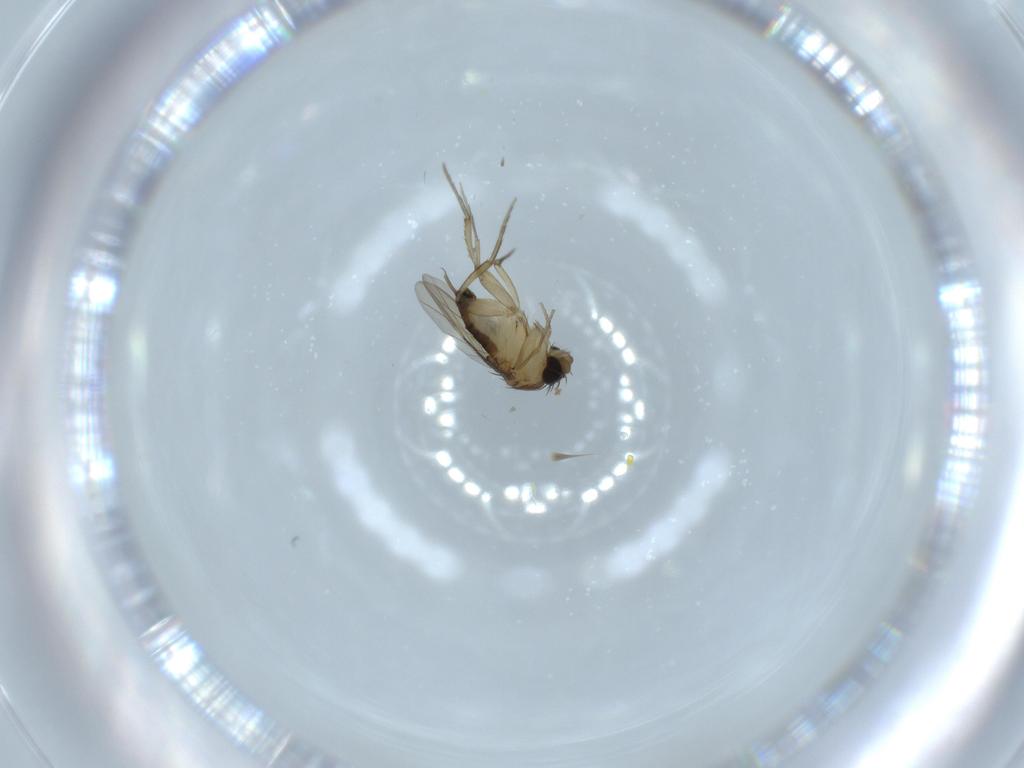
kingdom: Animalia
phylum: Arthropoda
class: Insecta
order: Diptera
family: Phoridae
